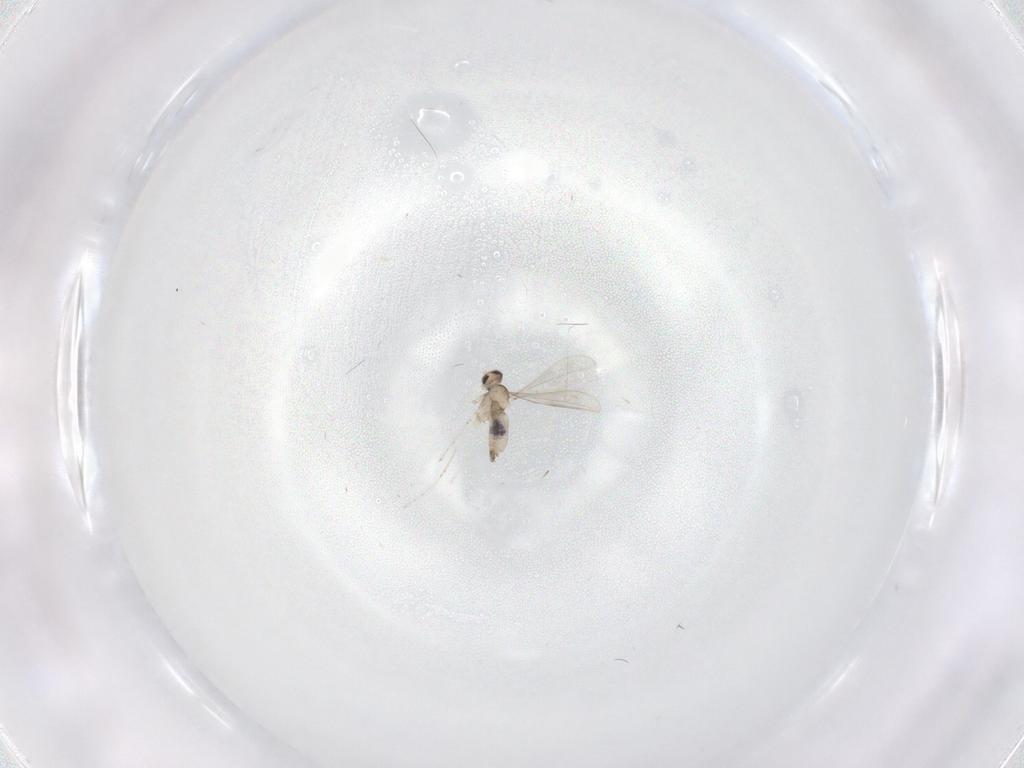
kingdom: Animalia
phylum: Arthropoda
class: Insecta
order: Diptera
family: Cecidomyiidae
